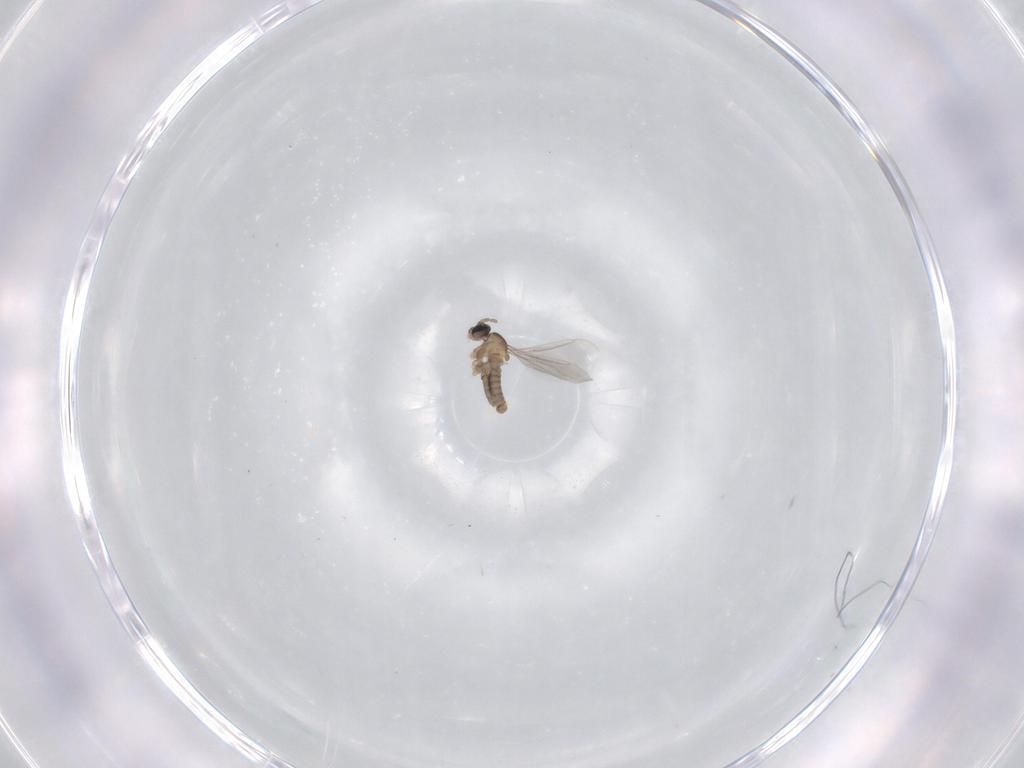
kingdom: Animalia
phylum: Arthropoda
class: Insecta
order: Diptera
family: Cecidomyiidae
